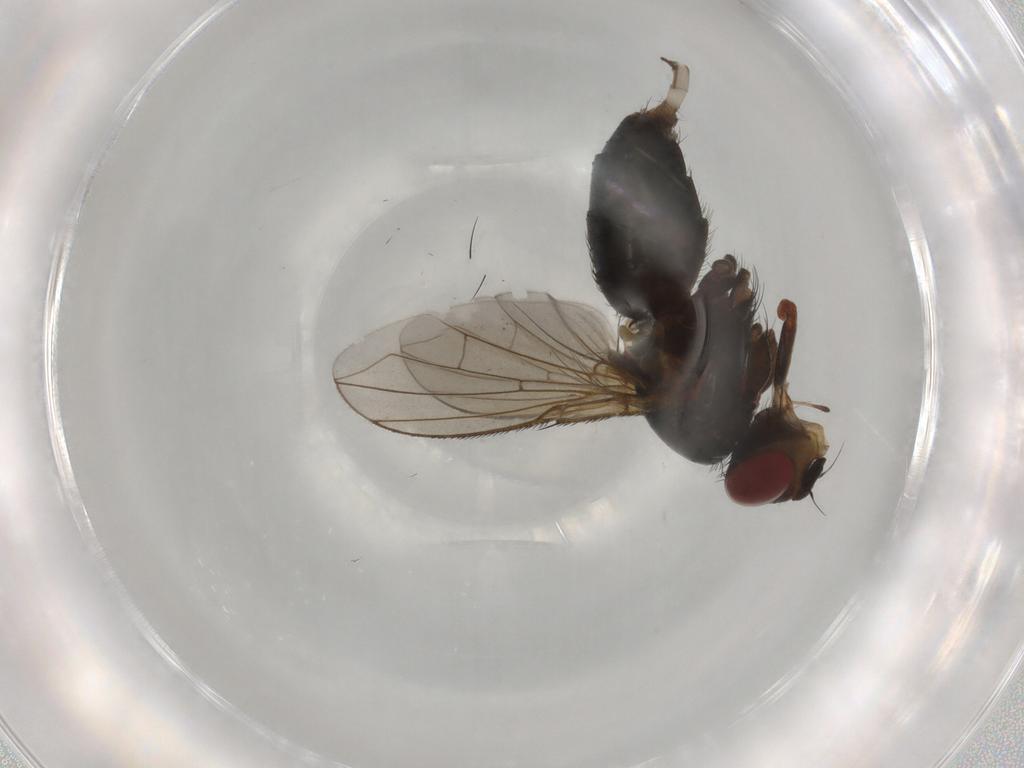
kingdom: Animalia
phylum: Arthropoda
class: Insecta
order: Diptera
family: Calliphoridae
